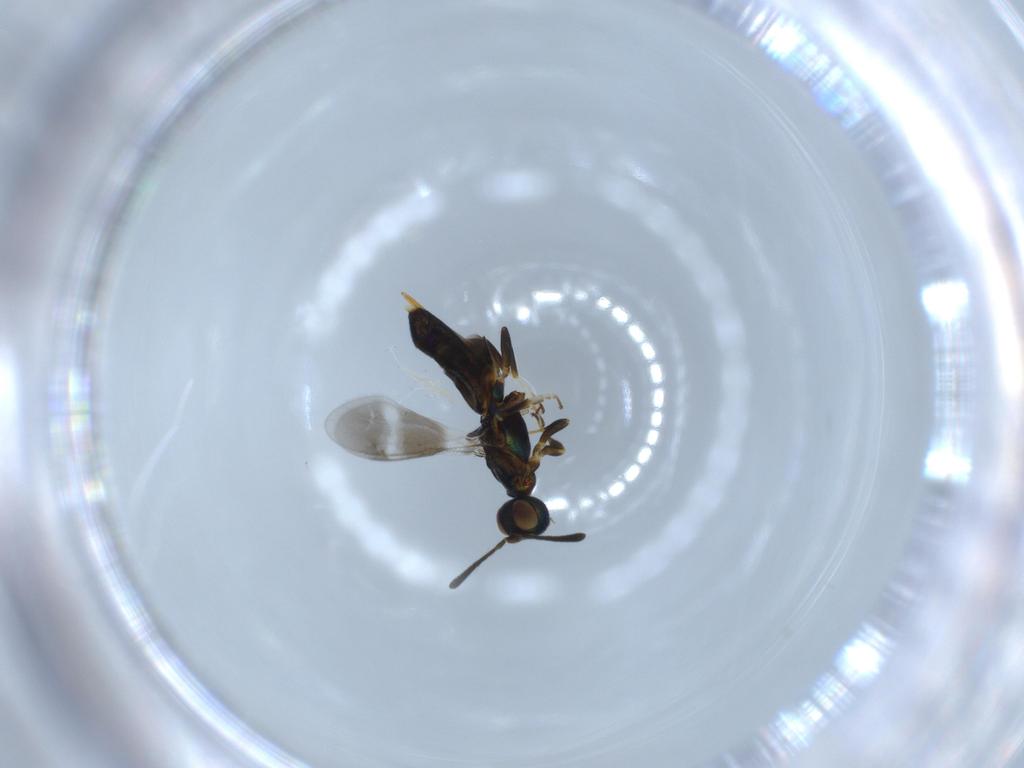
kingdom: Animalia
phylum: Arthropoda
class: Insecta
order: Hymenoptera
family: Eupelmidae
